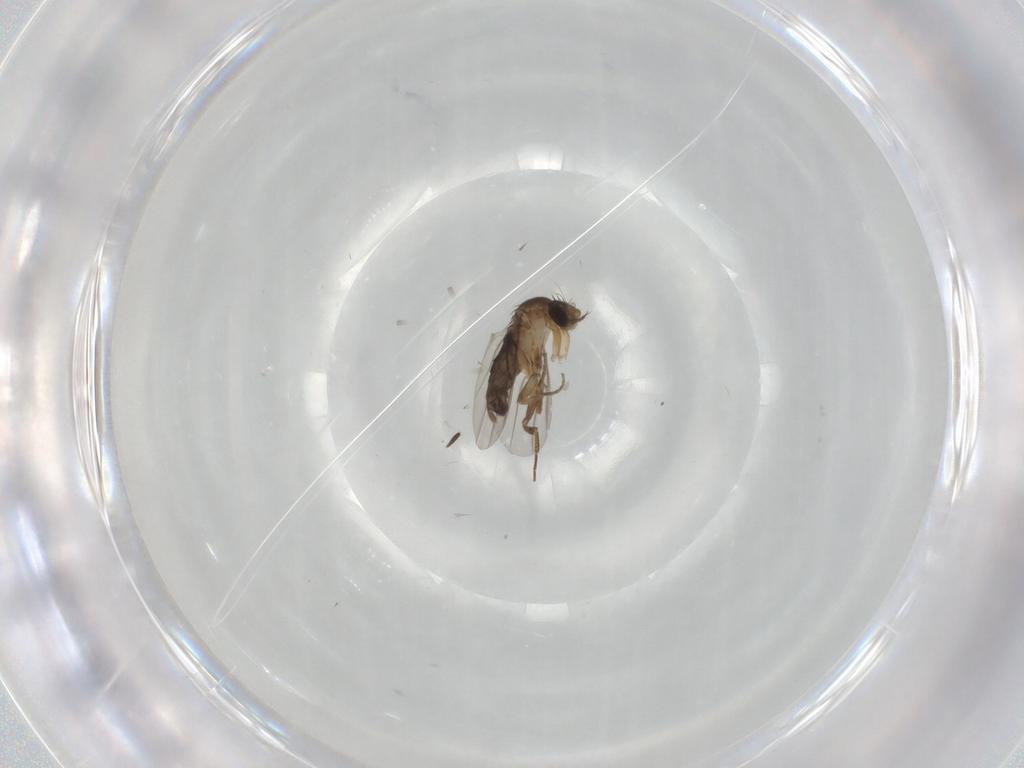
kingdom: Animalia
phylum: Arthropoda
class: Insecta
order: Diptera
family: Phoridae
